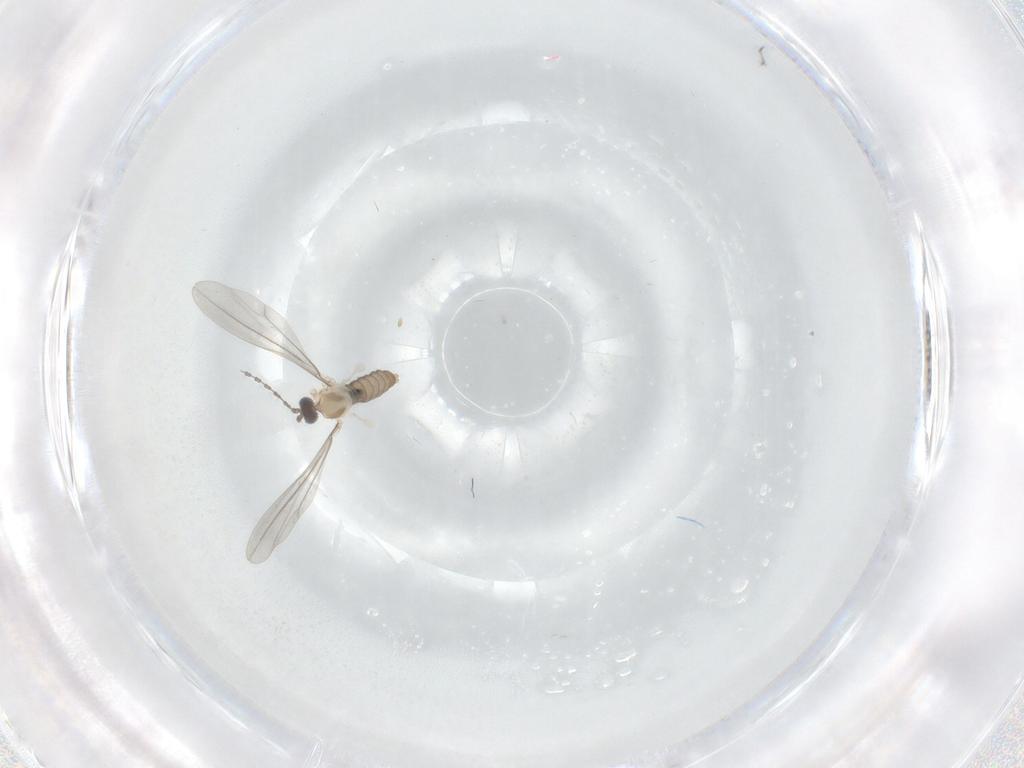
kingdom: Animalia
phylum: Arthropoda
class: Insecta
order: Diptera
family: Cecidomyiidae
